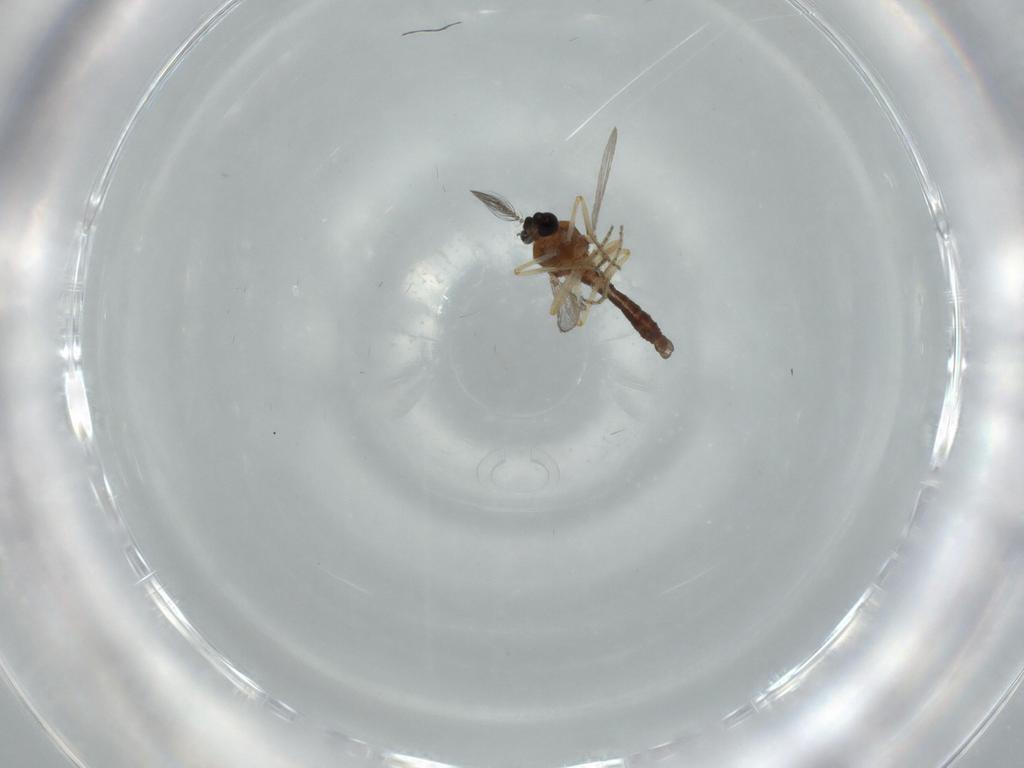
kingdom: Animalia
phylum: Arthropoda
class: Insecta
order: Diptera
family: Ceratopogonidae
